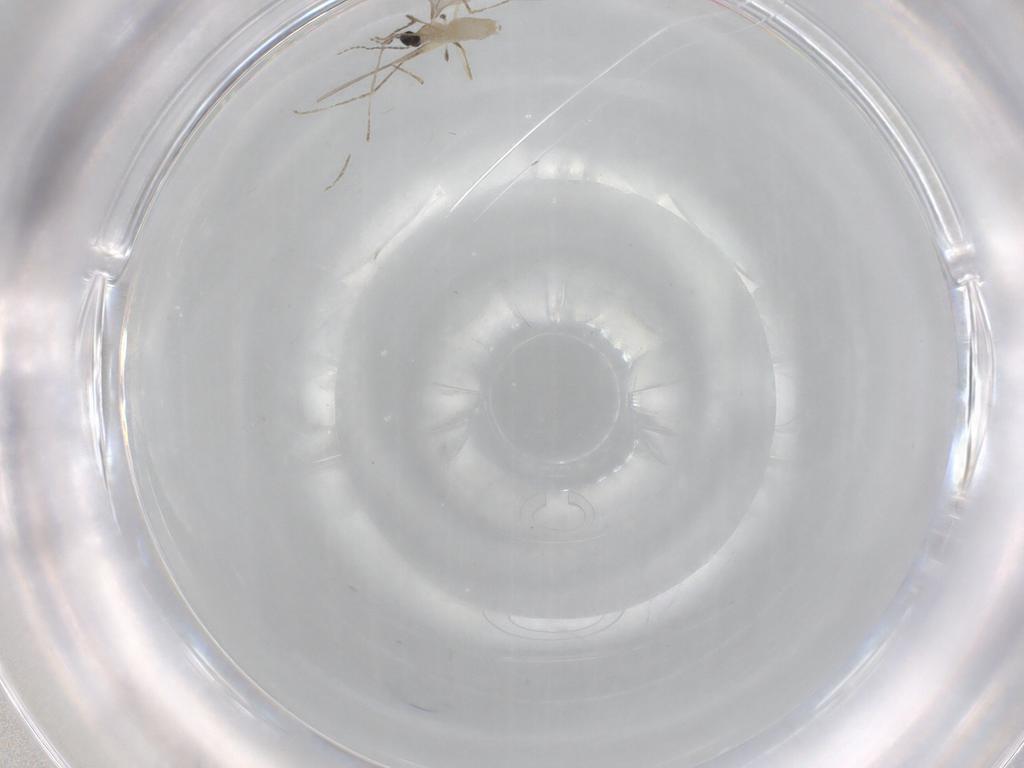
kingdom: Animalia
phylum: Arthropoda
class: Insecta
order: Diptera
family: Cecidomyiidae
